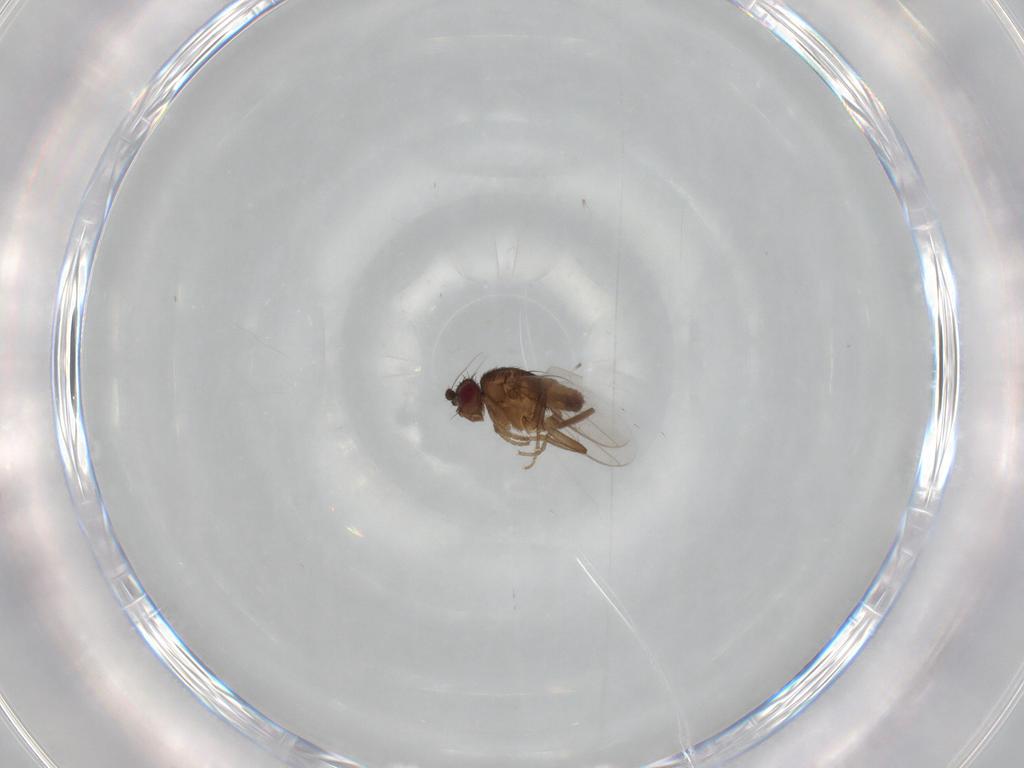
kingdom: Animalia
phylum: Arthropoda
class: Insecta
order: Diptera
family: Sphaeroceridae
